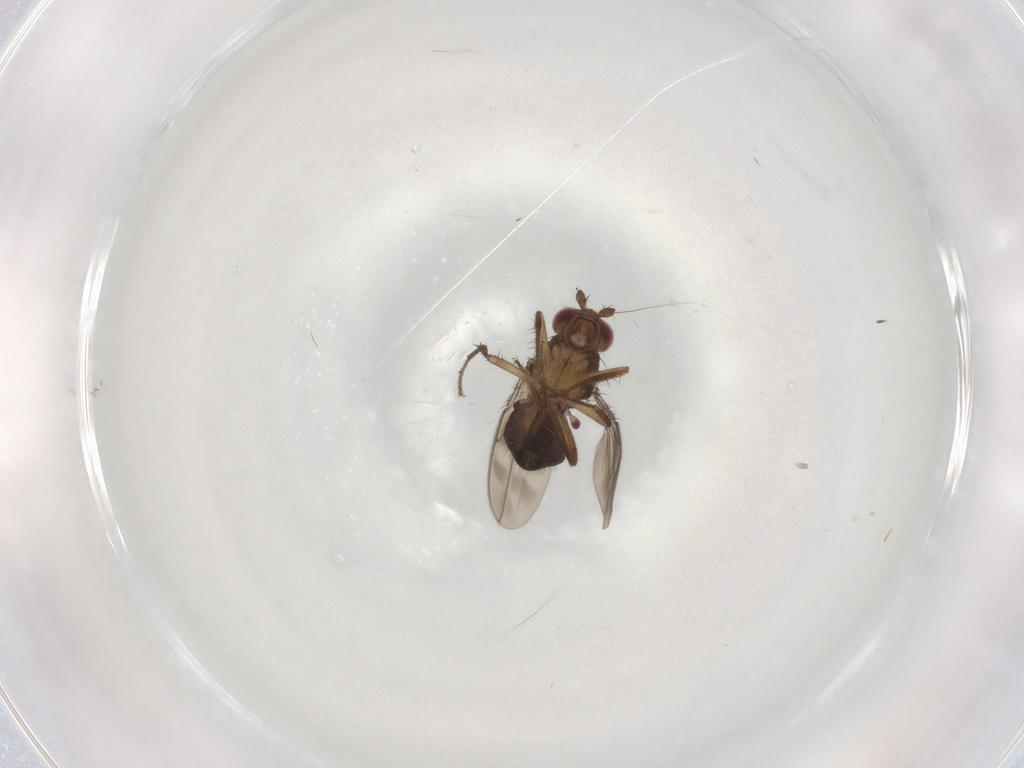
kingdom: Animalia
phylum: Arthropoda
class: Insecta
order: Diptera
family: Sphaeroceridae
